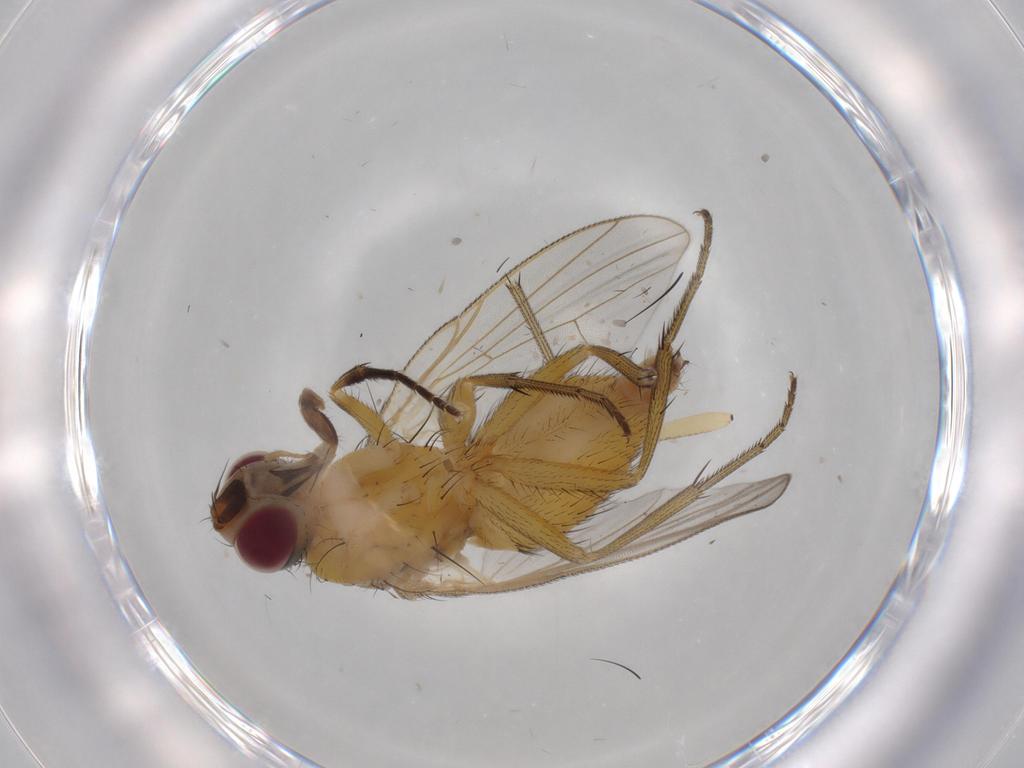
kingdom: Animalia
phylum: Arthropoda
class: Insecta
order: Diptera
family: Muscidae
